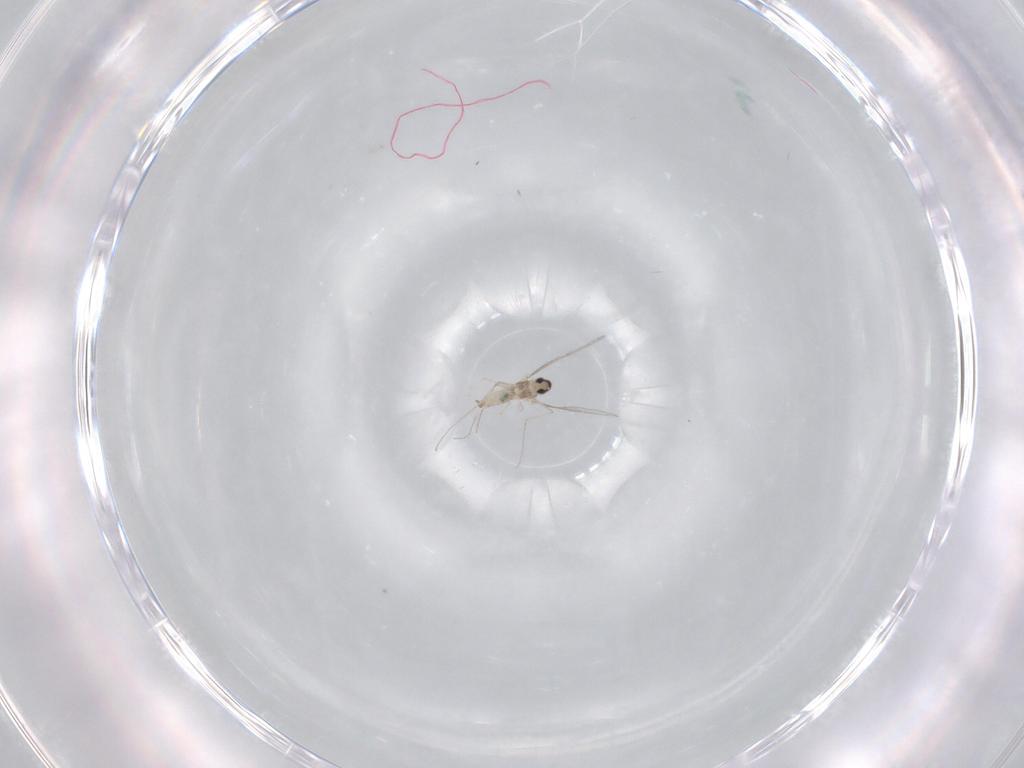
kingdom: Animalia
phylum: Arthropoda
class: Insecta
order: Diptera
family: Cecidomyiidae
